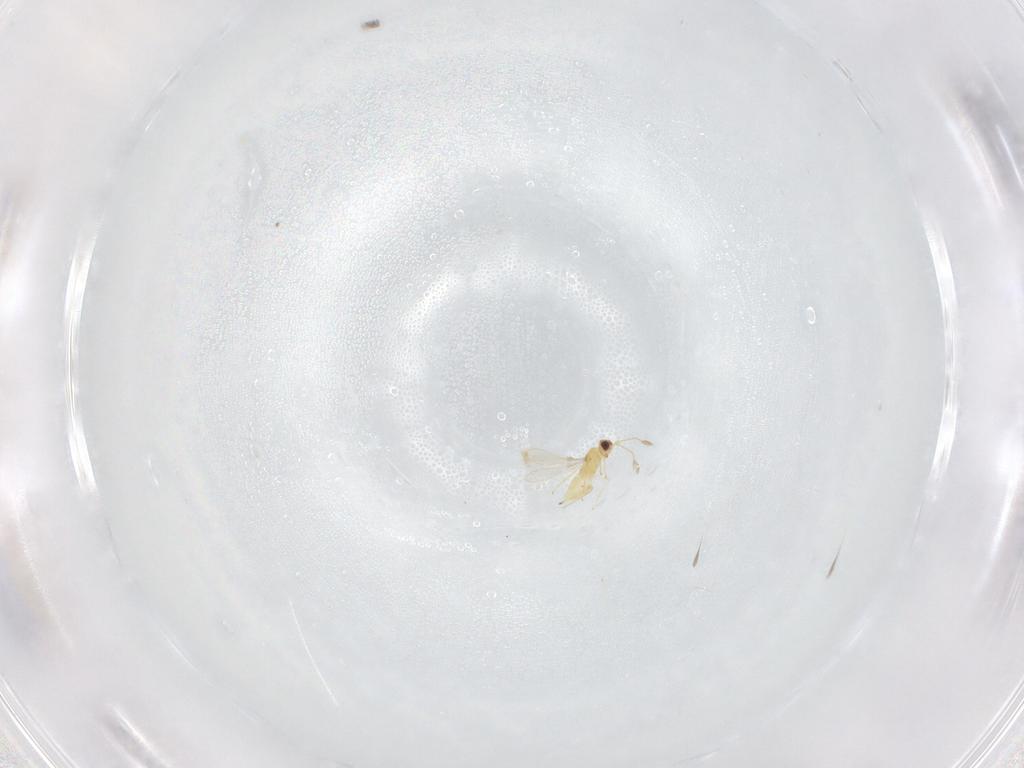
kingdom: Animalia
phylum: Arthropoda
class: Insecta
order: Hymenoptera
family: Mymaridae
